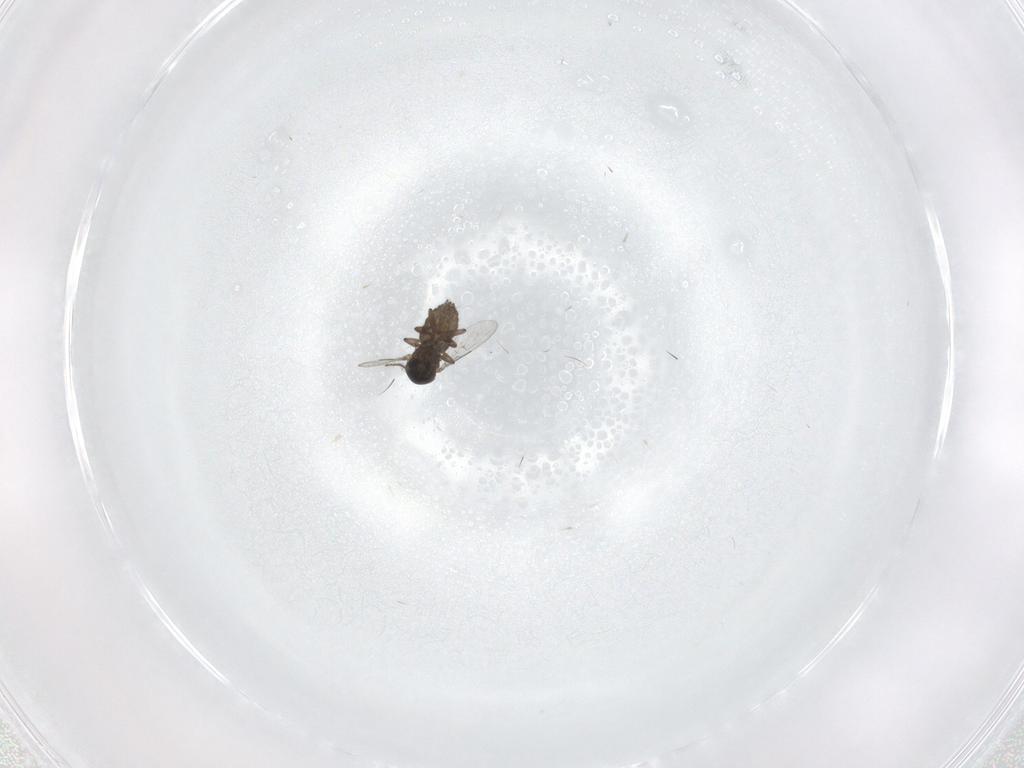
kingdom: Animalia
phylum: Arthropoda
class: Insecta
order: Diptera
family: Ceratopogonidae
